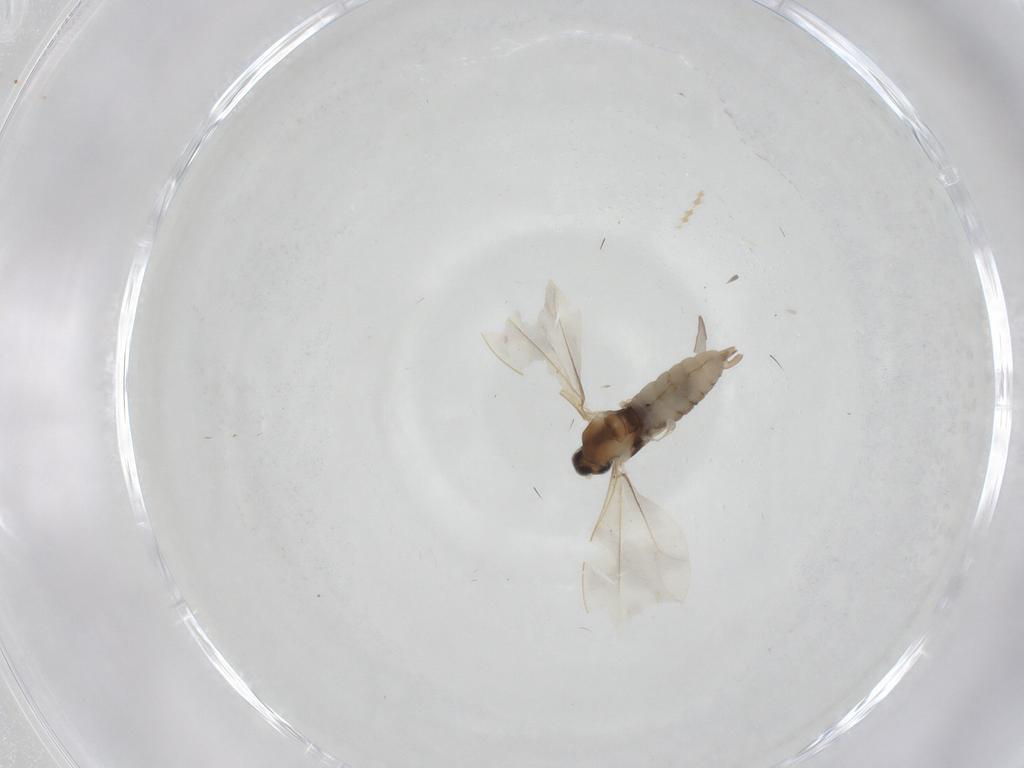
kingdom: Animalia
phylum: Arthropoda
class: Insecta
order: Diptera
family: Cecidomyiidae
